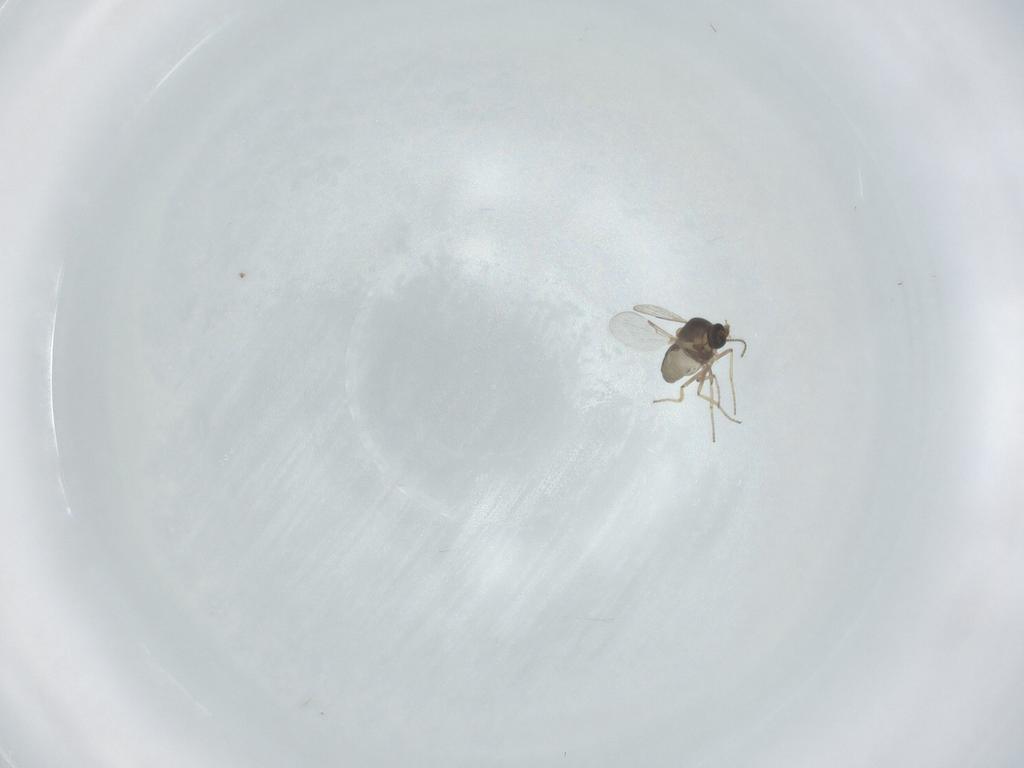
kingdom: Animalia
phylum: Arthropoda
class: Insecta
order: Diptera
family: Ceratopogonidae
